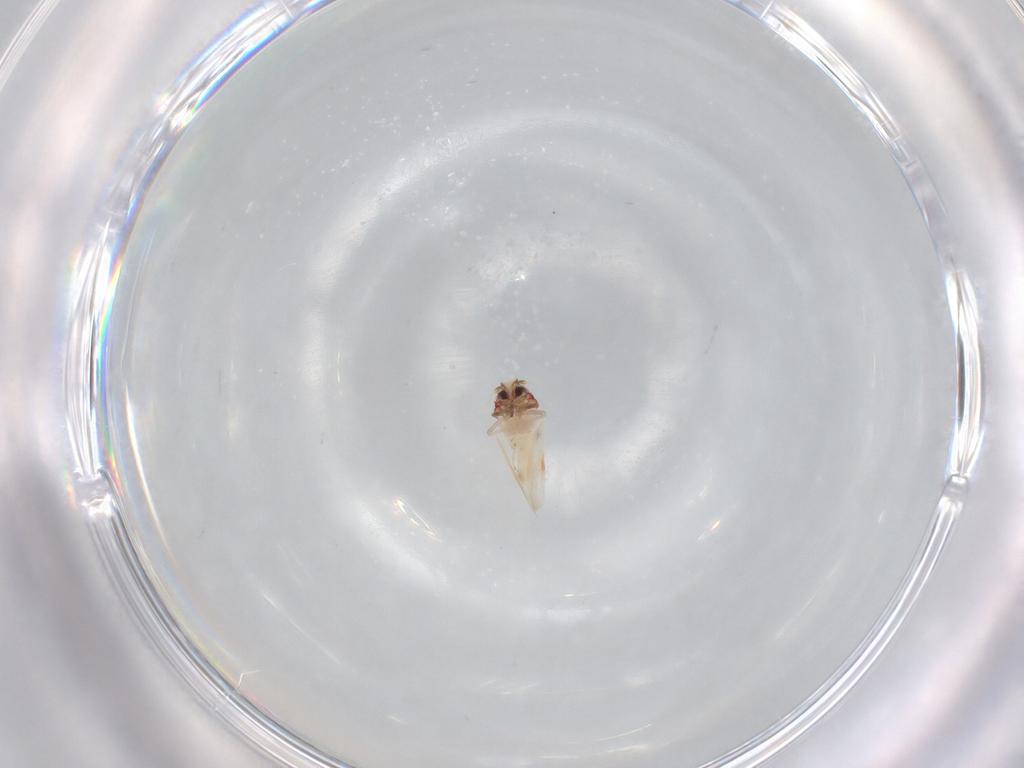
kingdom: Animalia
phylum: Arthropoda
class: Insecta
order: Hemiptera
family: Aleyrodidae
